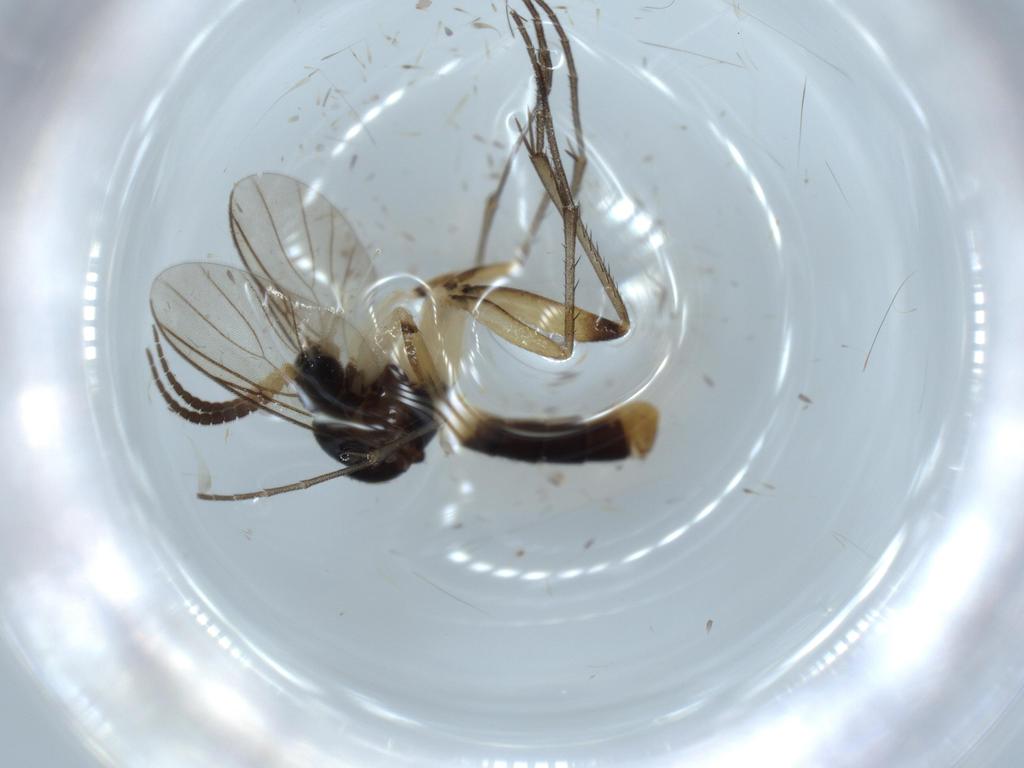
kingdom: Animalia
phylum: Arthropoda
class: Insecta
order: Diptera
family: Mycetophilidae
